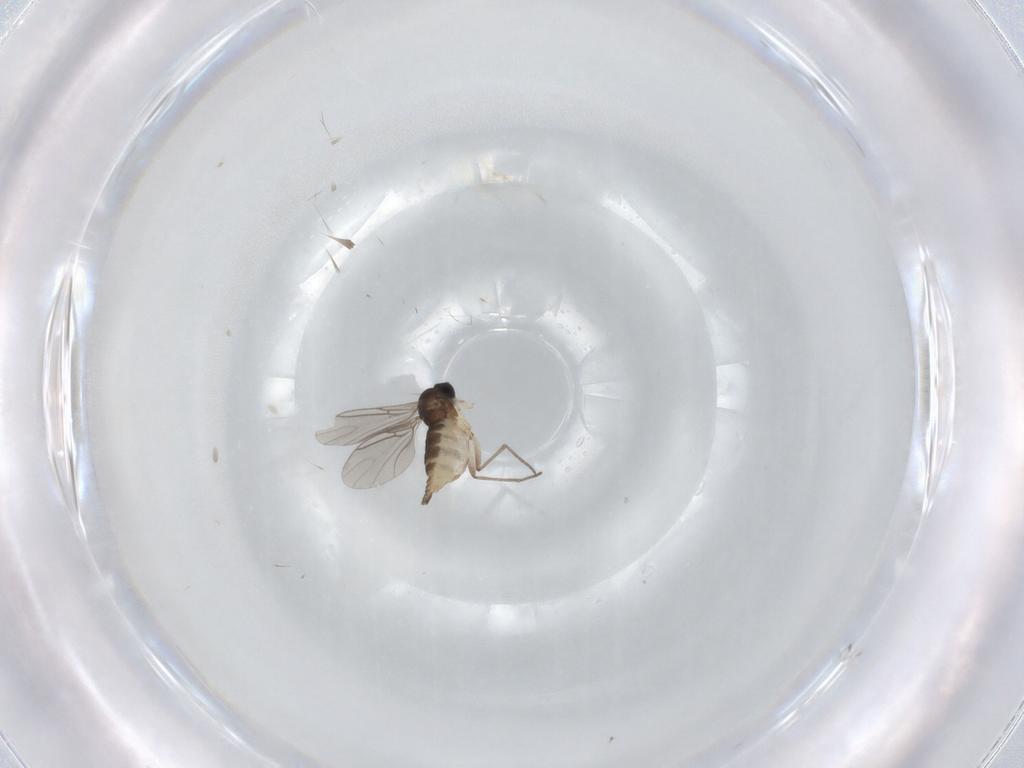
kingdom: Animalia
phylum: Arthropoda
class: Insecta
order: Diptera
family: Sciaridae
